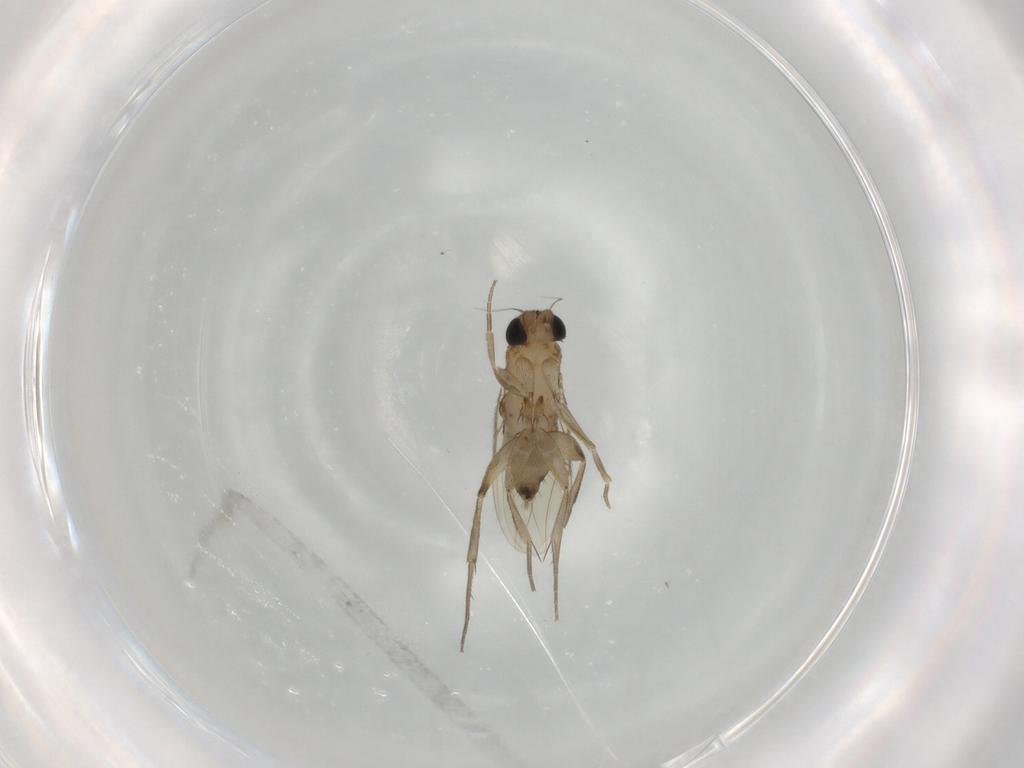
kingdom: Animalia
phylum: Arthropoda
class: Insecta
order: Diptera
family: Phoridae
